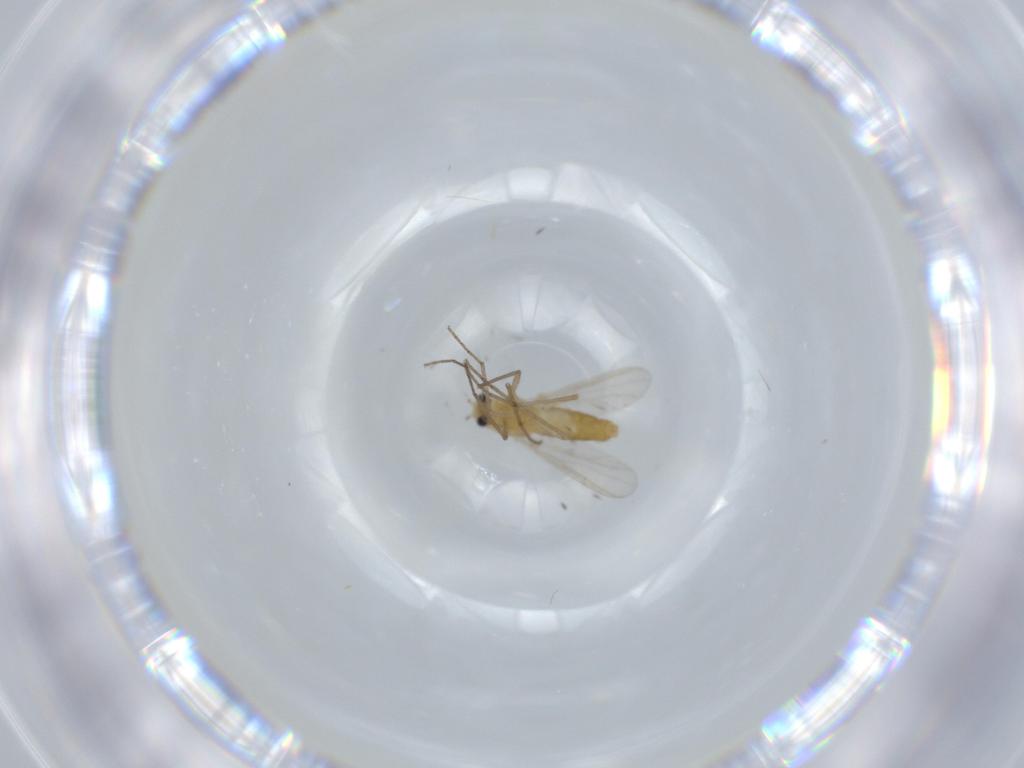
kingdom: Animalia
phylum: Arthropoda
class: Insecta
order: Diptera
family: Chironomidae
